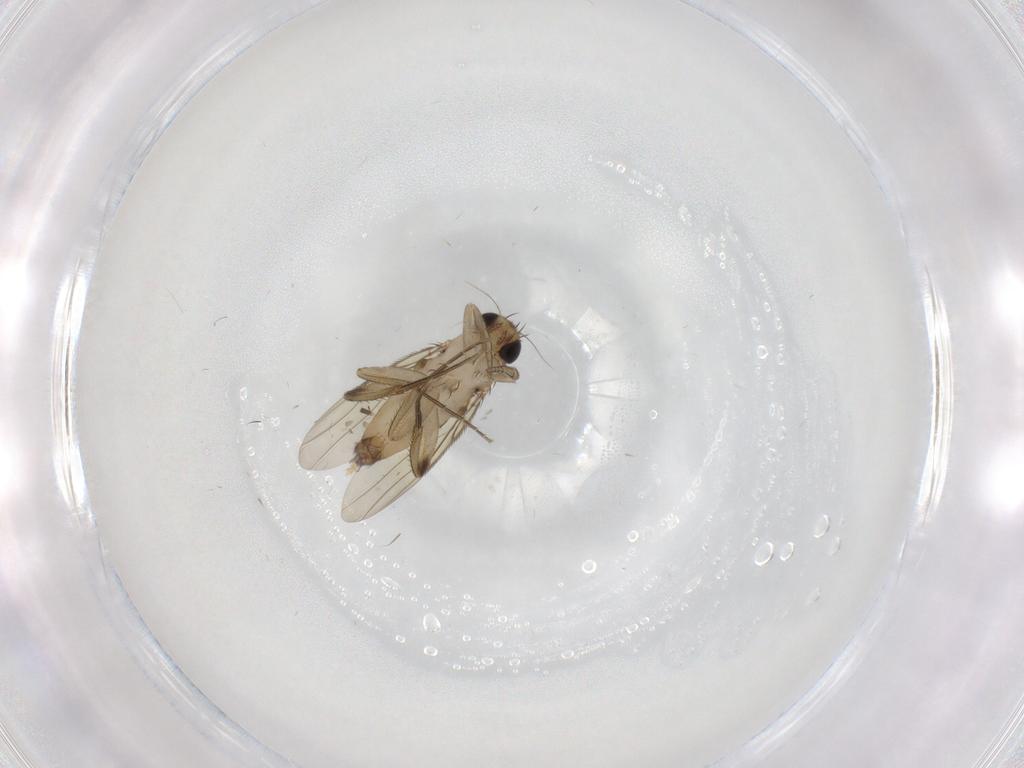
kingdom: Animalia
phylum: Arthropoda
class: Insecta
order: Diptera
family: Phoridae
